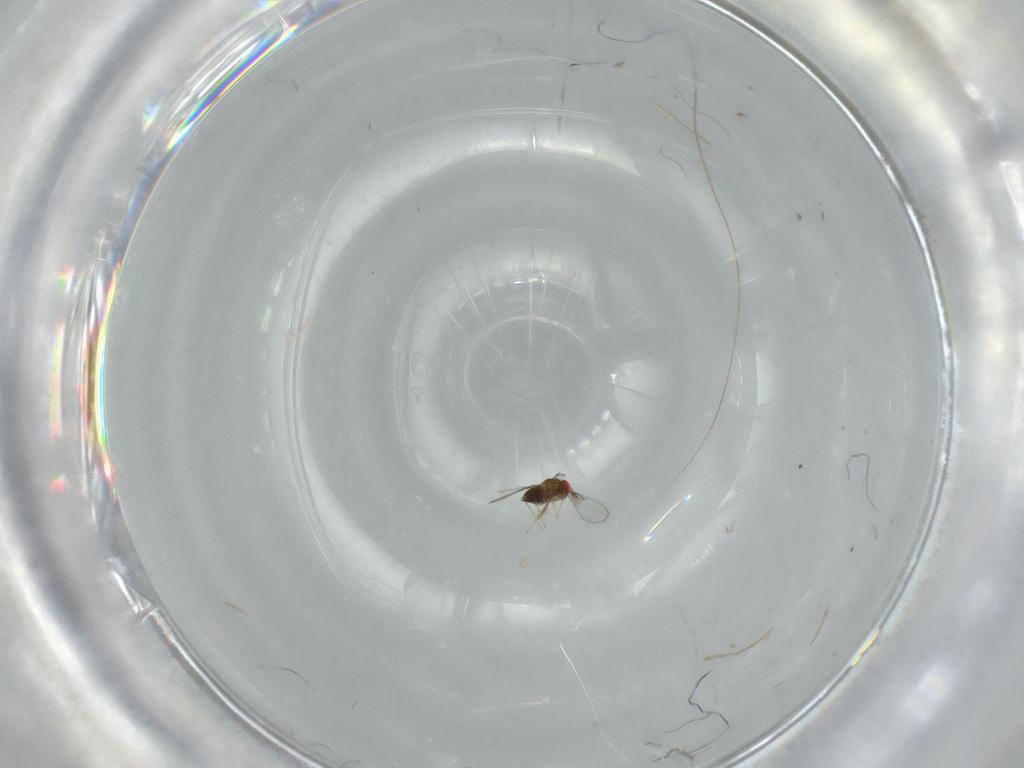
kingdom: Animalia
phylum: Arthropoda
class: Insecta
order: Hymenoptera
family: Trichogrammatidae
